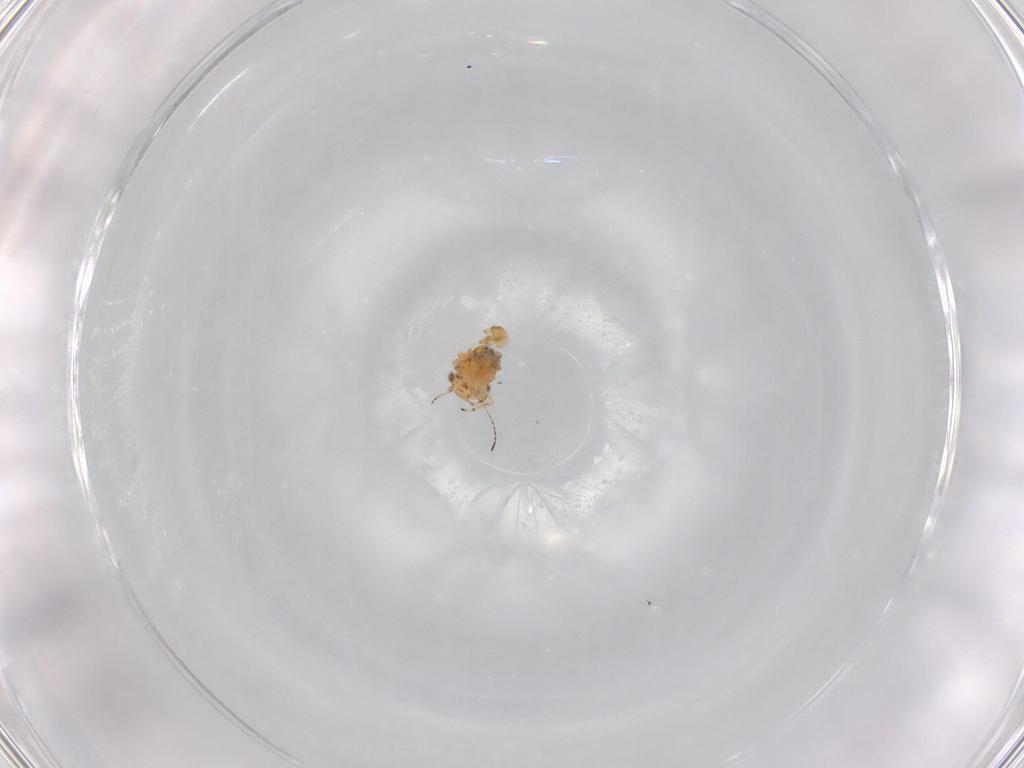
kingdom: Animalia
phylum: Arthropoda
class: Insecta
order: Hemiptera
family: Psylloidea_incertae_sedis
